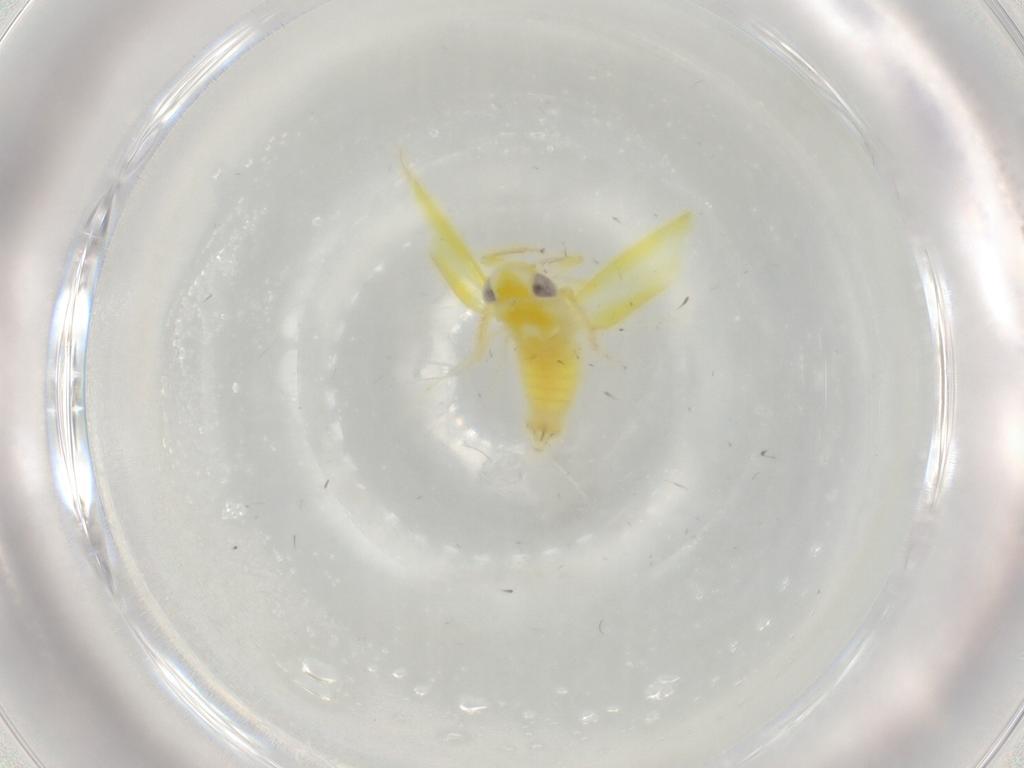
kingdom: Animalia
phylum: Arthropoda
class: Insecta
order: Hemiptera
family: Cicadellidae
